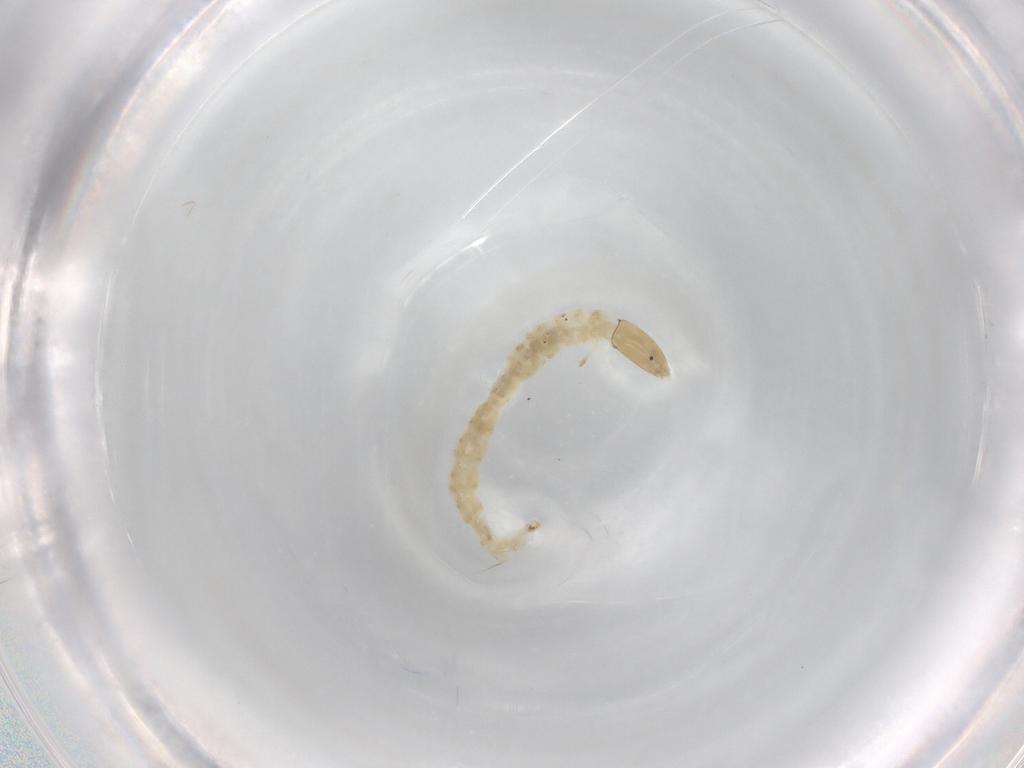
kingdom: Animalia
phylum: Arthropoda
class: Insecta
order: Diptera
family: Chironomidae
